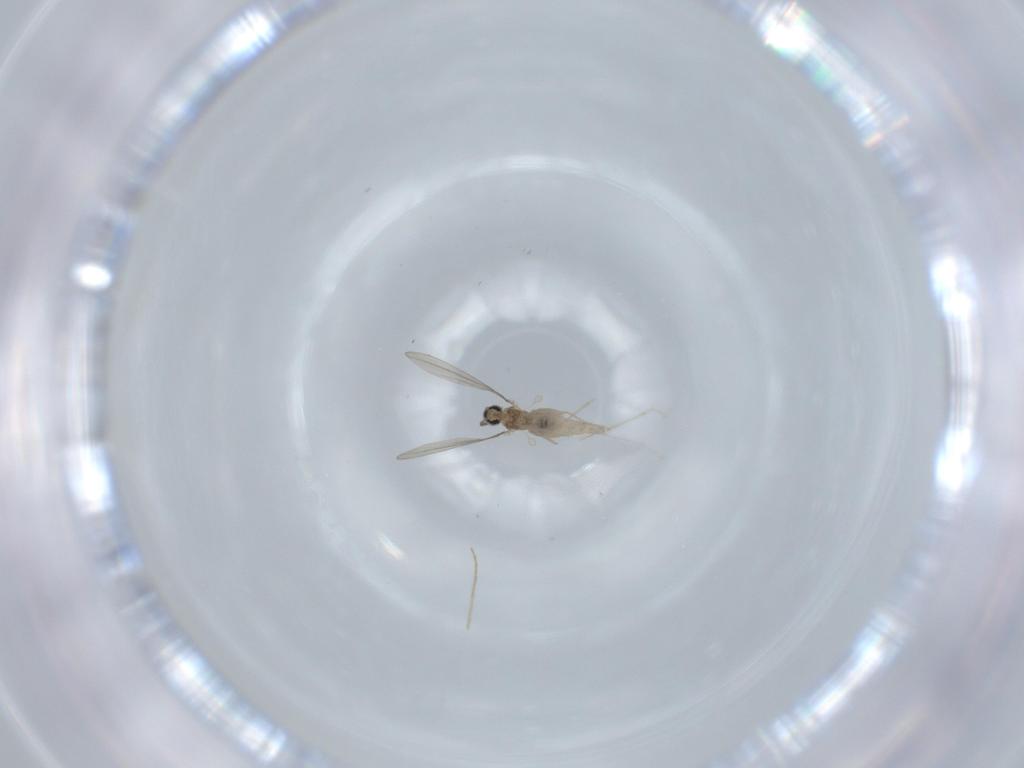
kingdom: Animalia
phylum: Arthropoda
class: Insecta
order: Diptera
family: Cecidomyiidae
